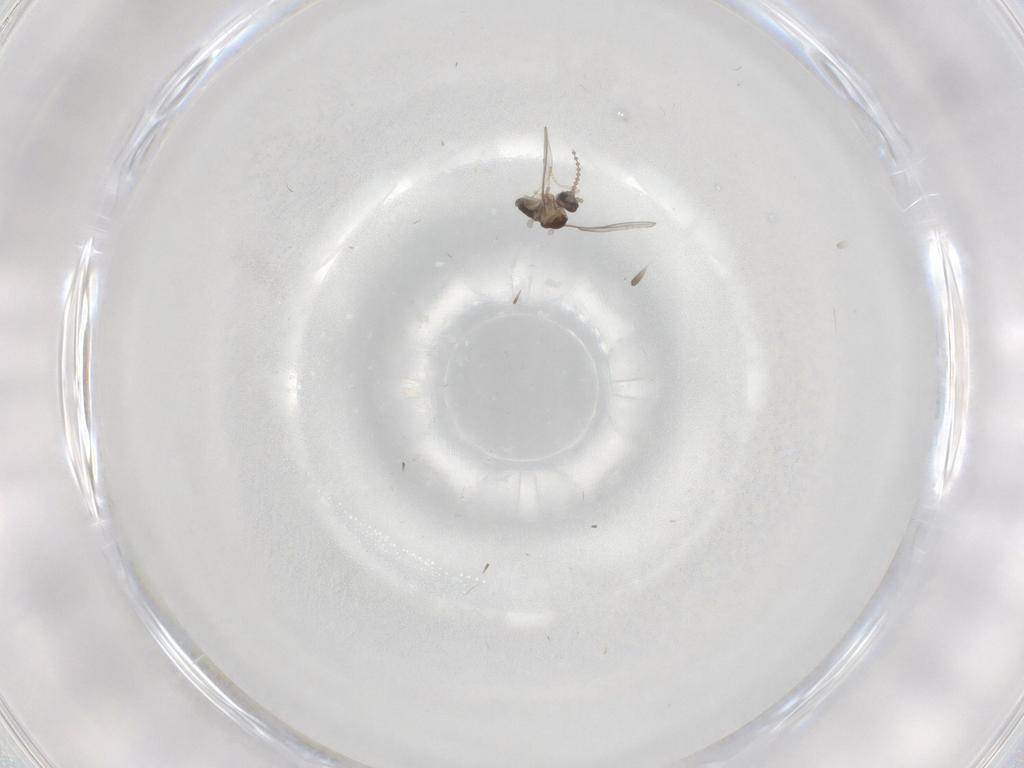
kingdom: Animalia
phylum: Arthropoda
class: Insecta
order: Diptera
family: Cecidomyiidae
